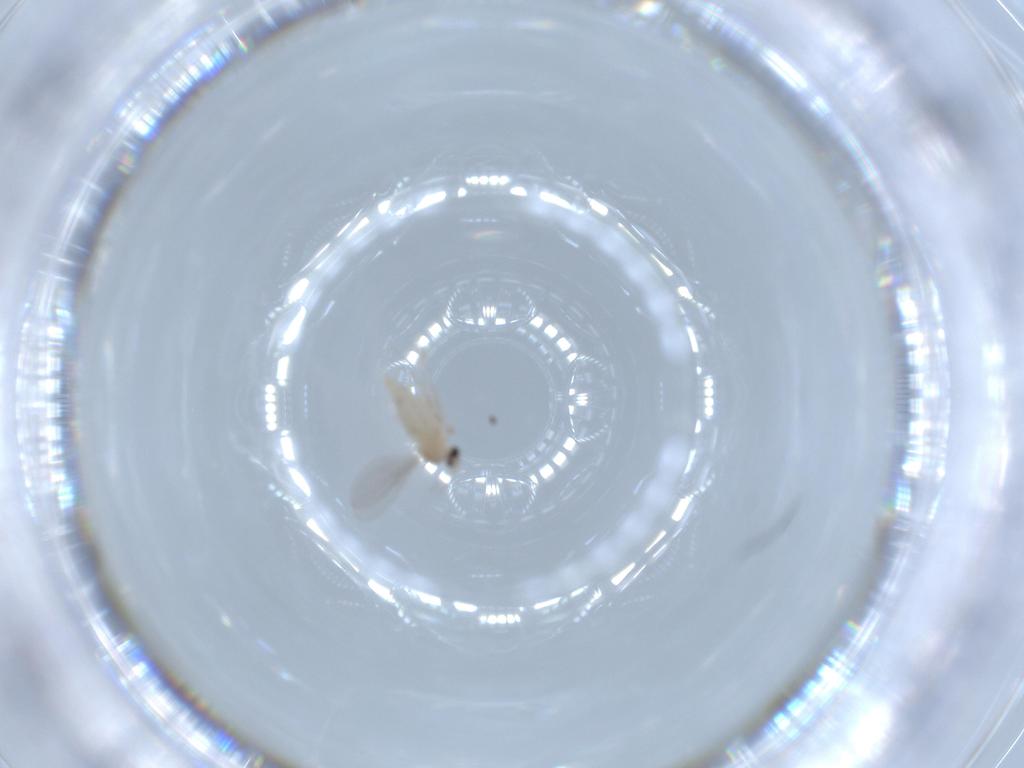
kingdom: Animalia
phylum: Arthropoda
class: Insecta
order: Diptera
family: Cecidomyiidae
